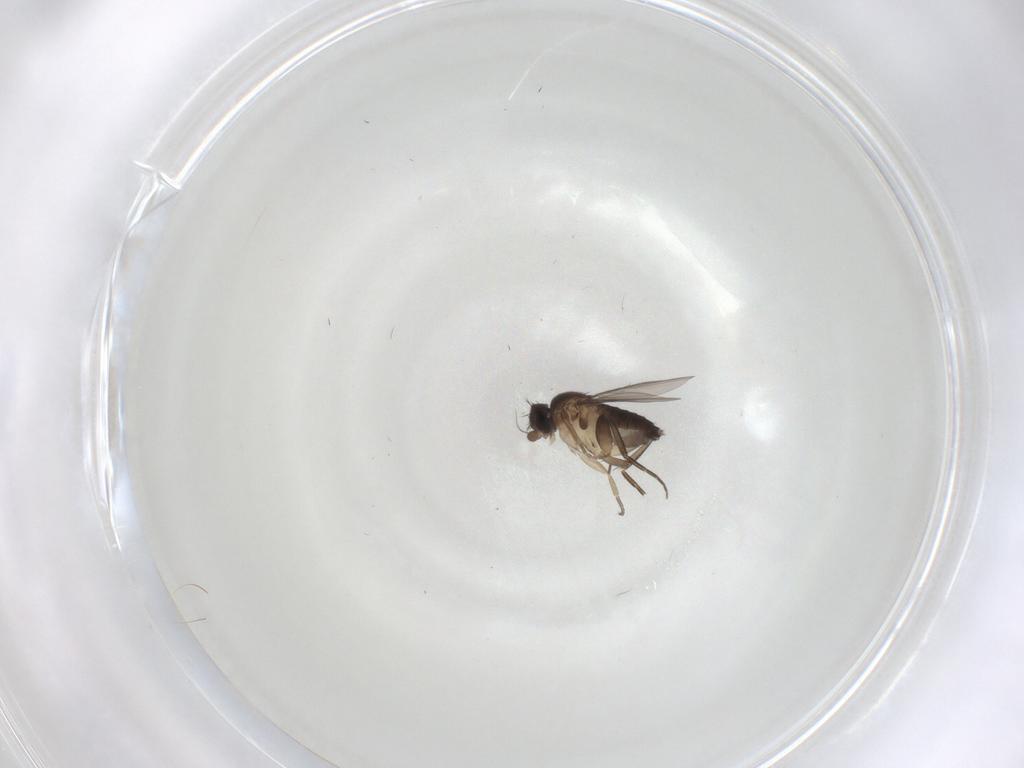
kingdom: Animalia
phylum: Arthropoda
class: Insecta
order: Diptera
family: Phoridae
